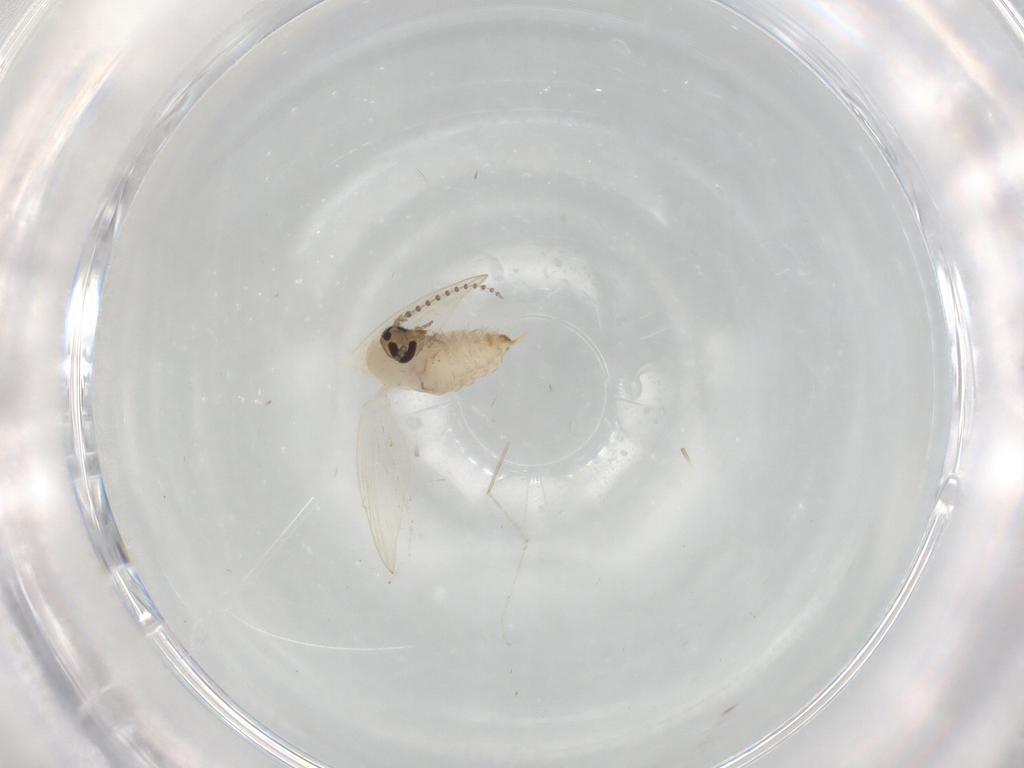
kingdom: Animalia
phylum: Arthropoda
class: Insecta
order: Diptera
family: Psychodidae
